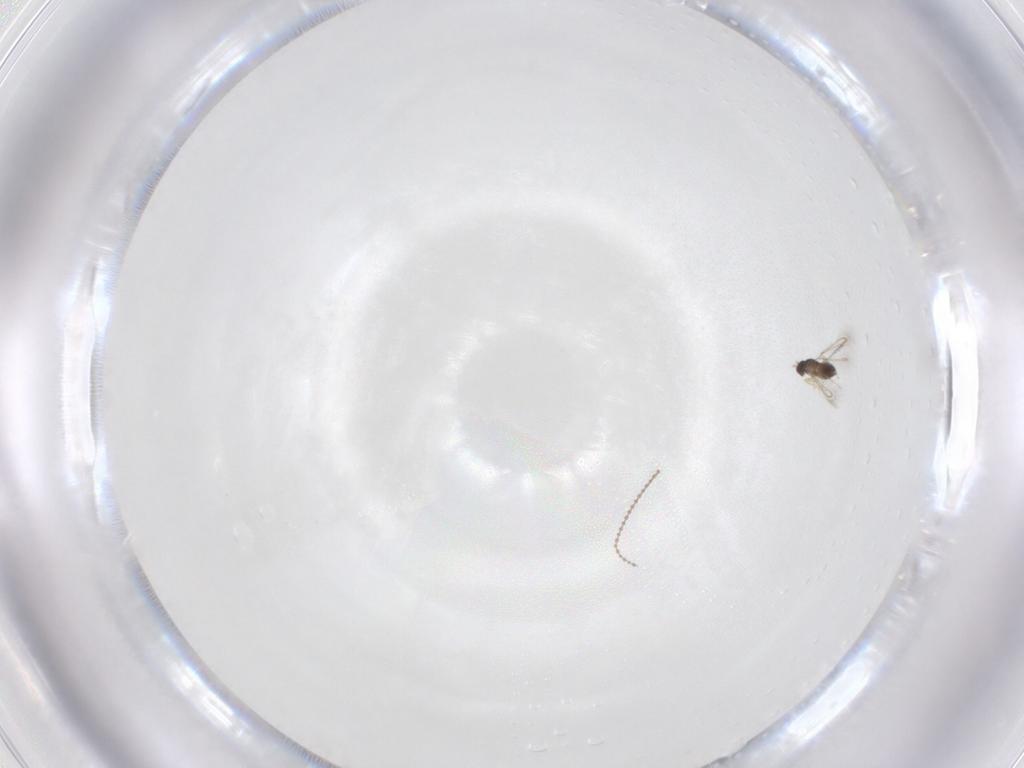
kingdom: Animalia
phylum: Arthropoda
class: Insecta
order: Diptera
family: Cecidomyiidae
